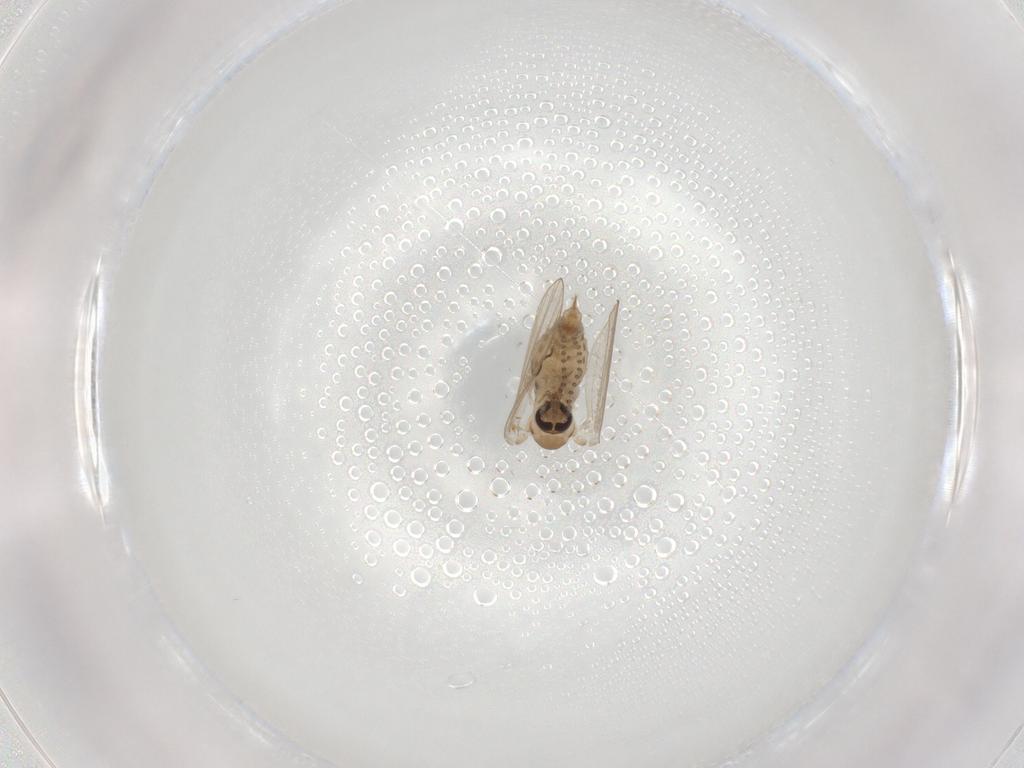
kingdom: Animalia
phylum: Arthropoda
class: Insecta
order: Diptera
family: Psychodidae
